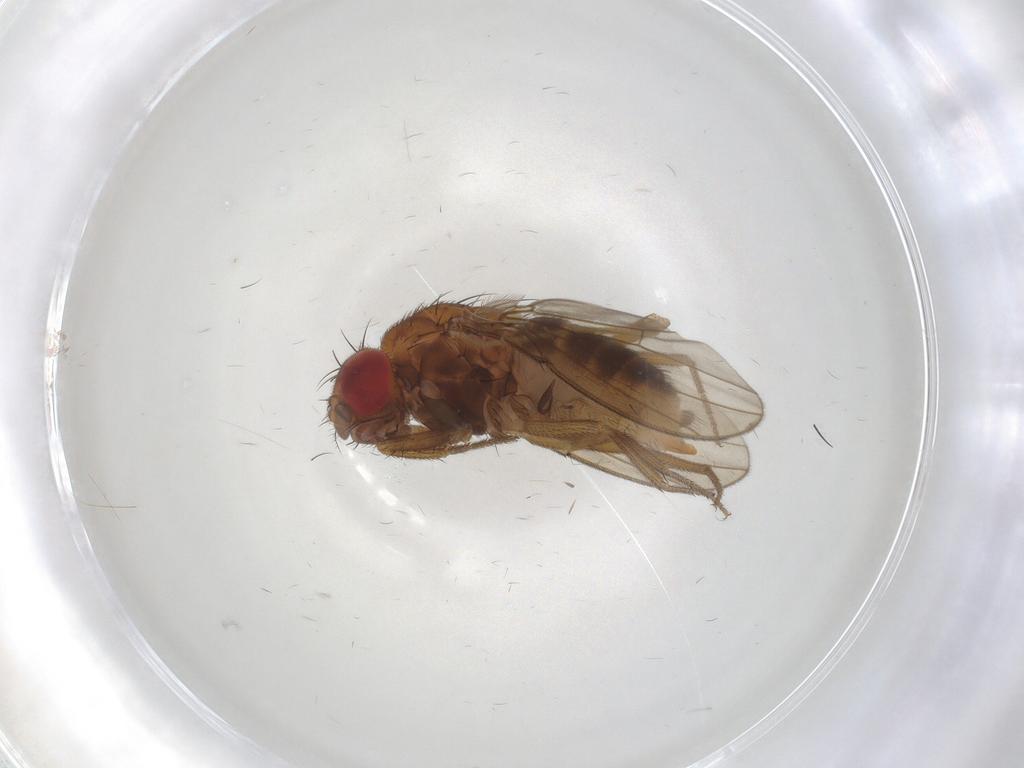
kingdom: Animalia
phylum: Arthropoda
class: Insecta
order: Diptera
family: Drosophilidae
